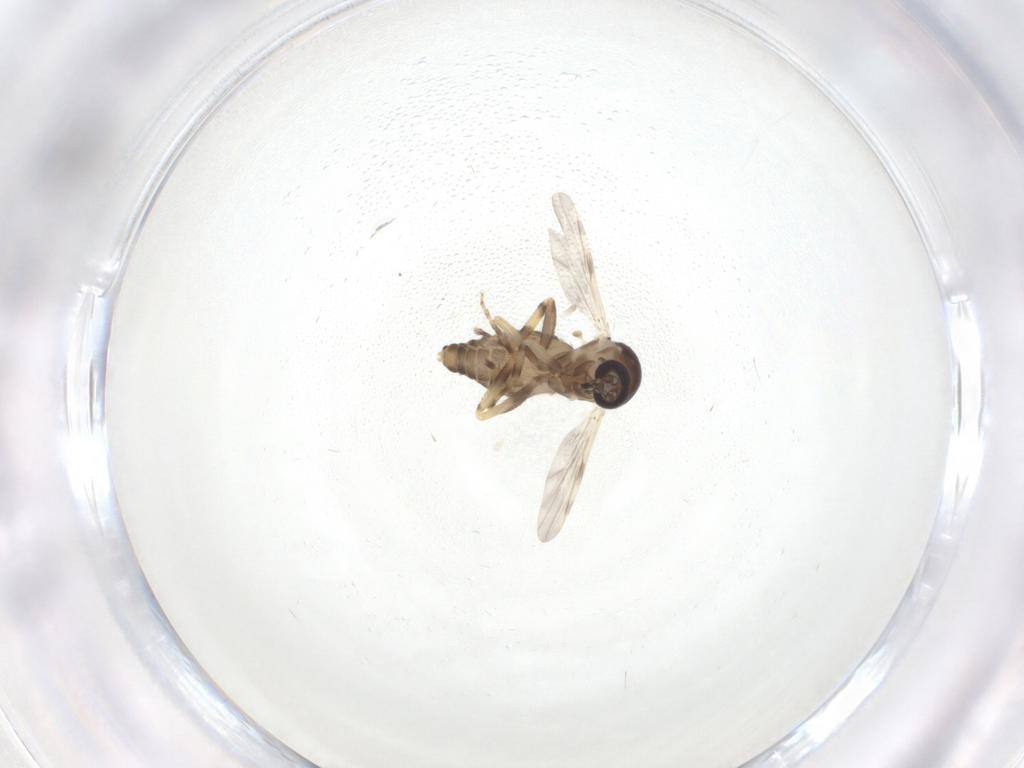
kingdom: Animalia
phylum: Arthropoda
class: Insecta
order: Diptera
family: Ceratopogonidae
